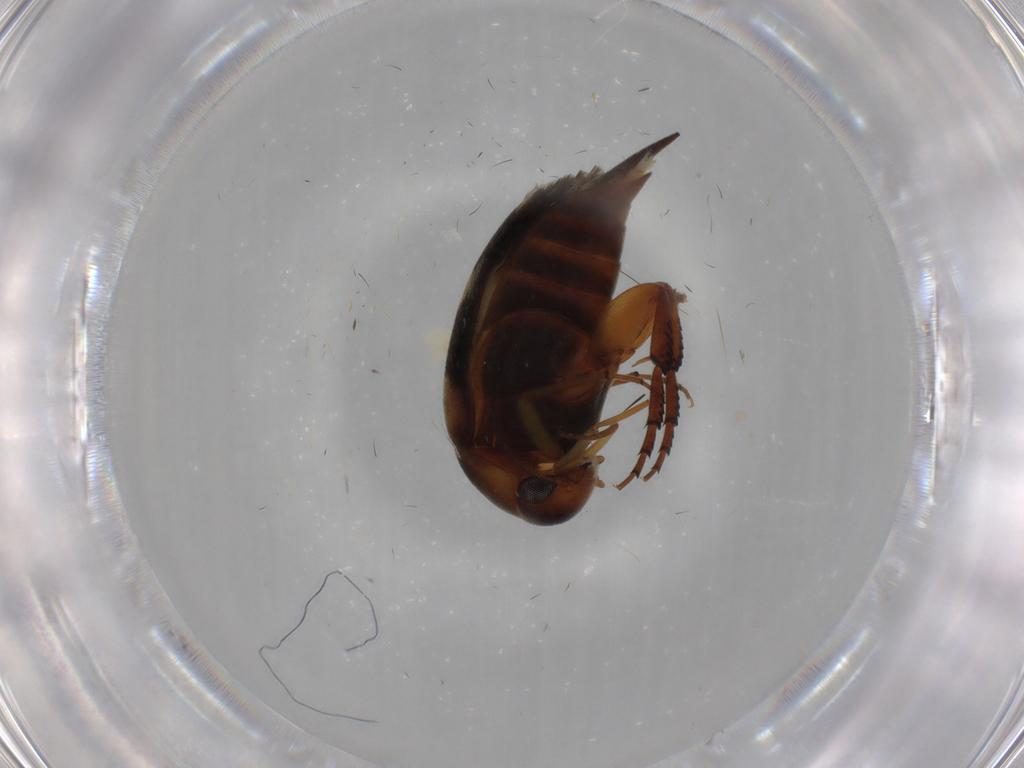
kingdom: Animalia
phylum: Arthropoda
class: Insecta
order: Coleoptera
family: Mordellidae
